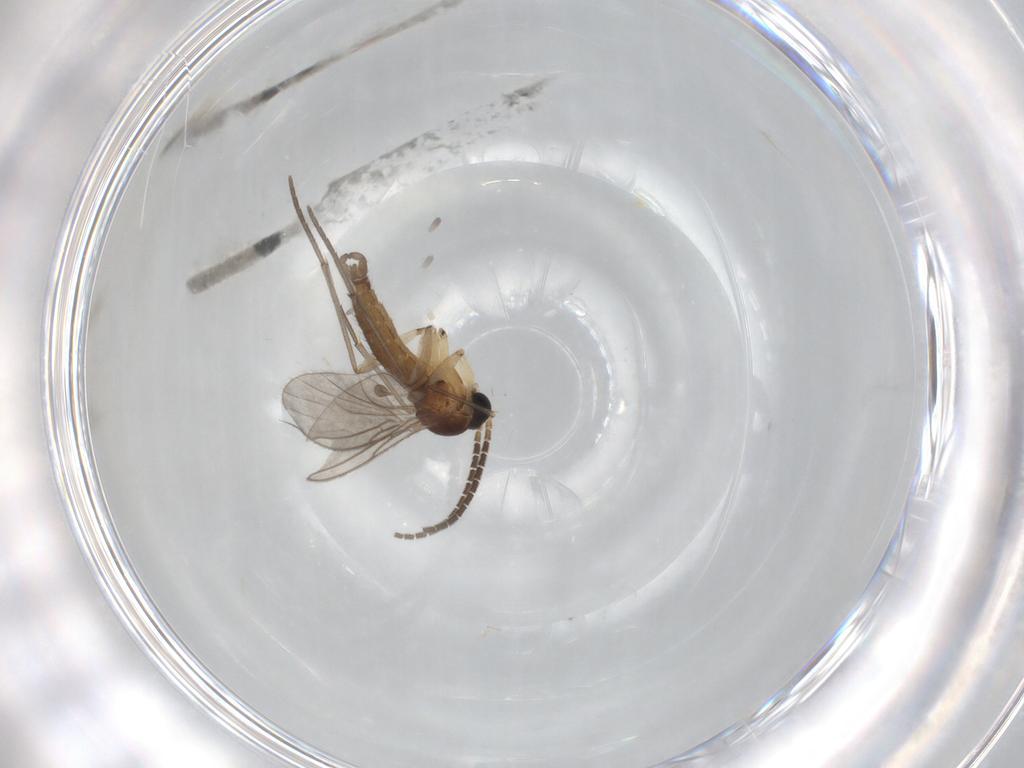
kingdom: Animalia
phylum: Arthropoda
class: Insecta
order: Diptera
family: Cecidomyiidae
